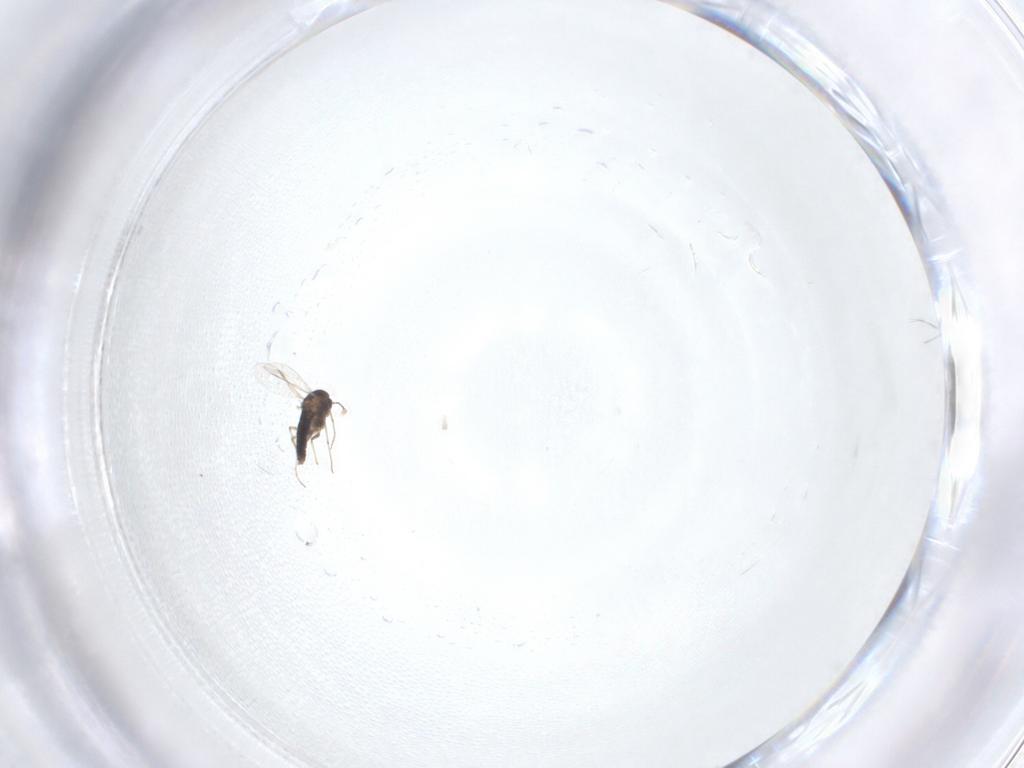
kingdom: Animalia
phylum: Arthropoda
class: Insecta
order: Diptera
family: Chironomidae
